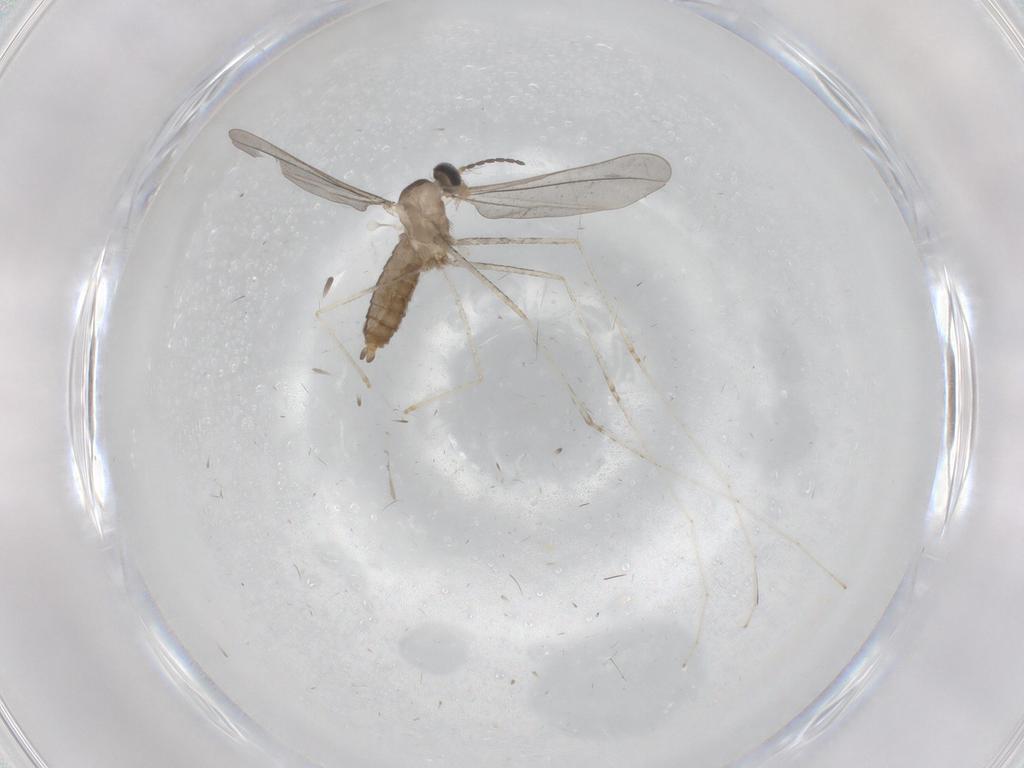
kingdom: Animalia
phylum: Arthropoda
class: Insecta
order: Diptera
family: Cecidomyiidae
